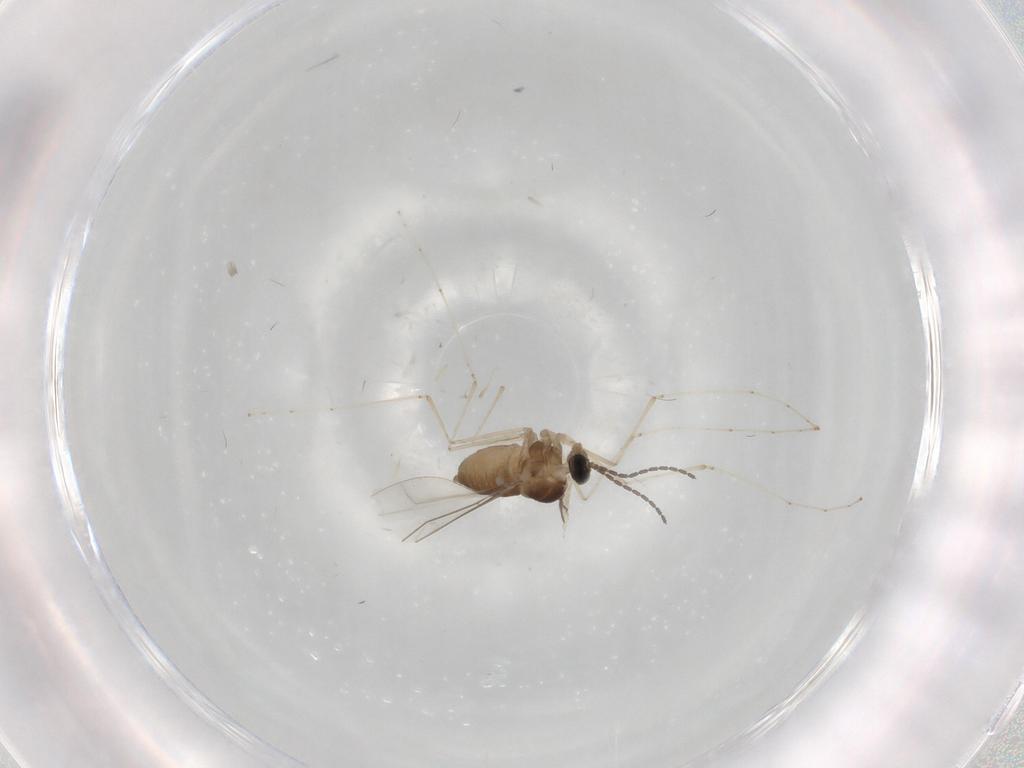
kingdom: Animalia
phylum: Arthropoda
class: Insecta
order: Diptera
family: Cecidomyiidae
